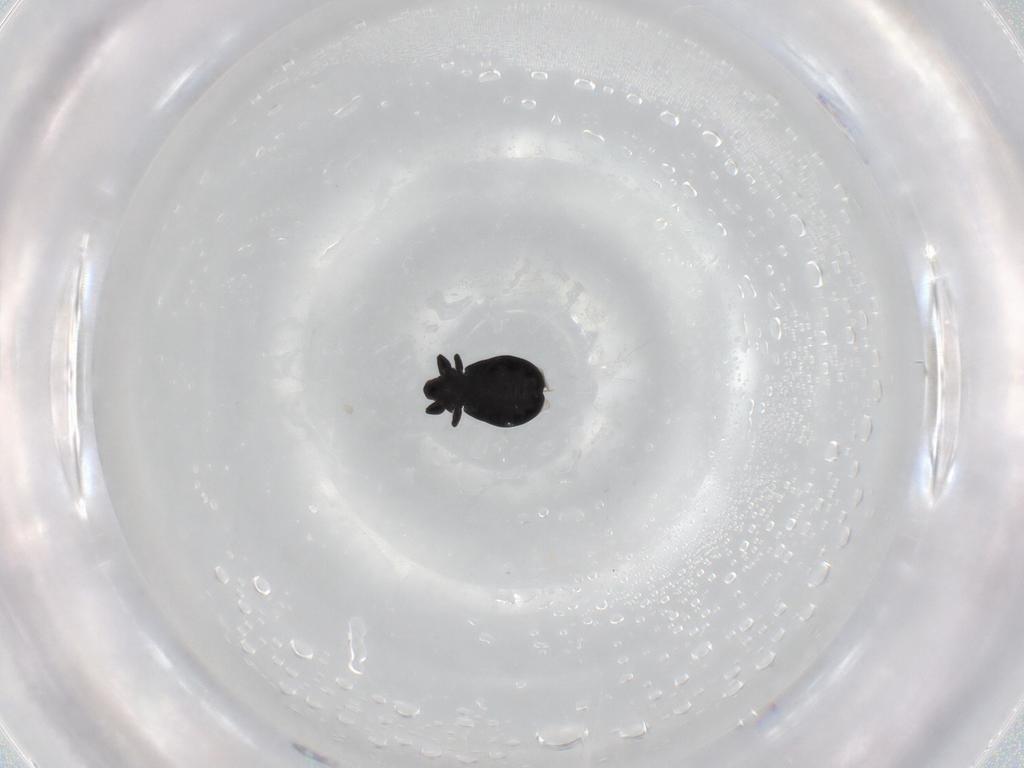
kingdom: Animalia
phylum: Arthropoda
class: Insecta
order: Coleoptera
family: Curculionidae
